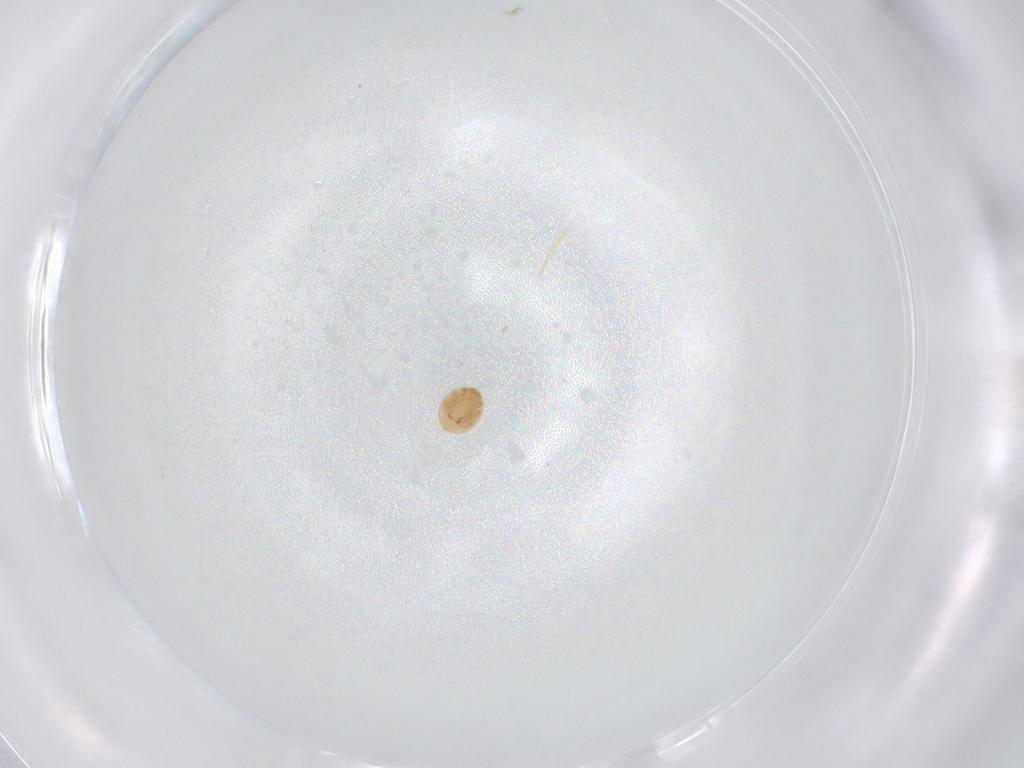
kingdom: Animalia
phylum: Arthropoda
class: Arachnida
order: Mesostigmata
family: Trematuridae
